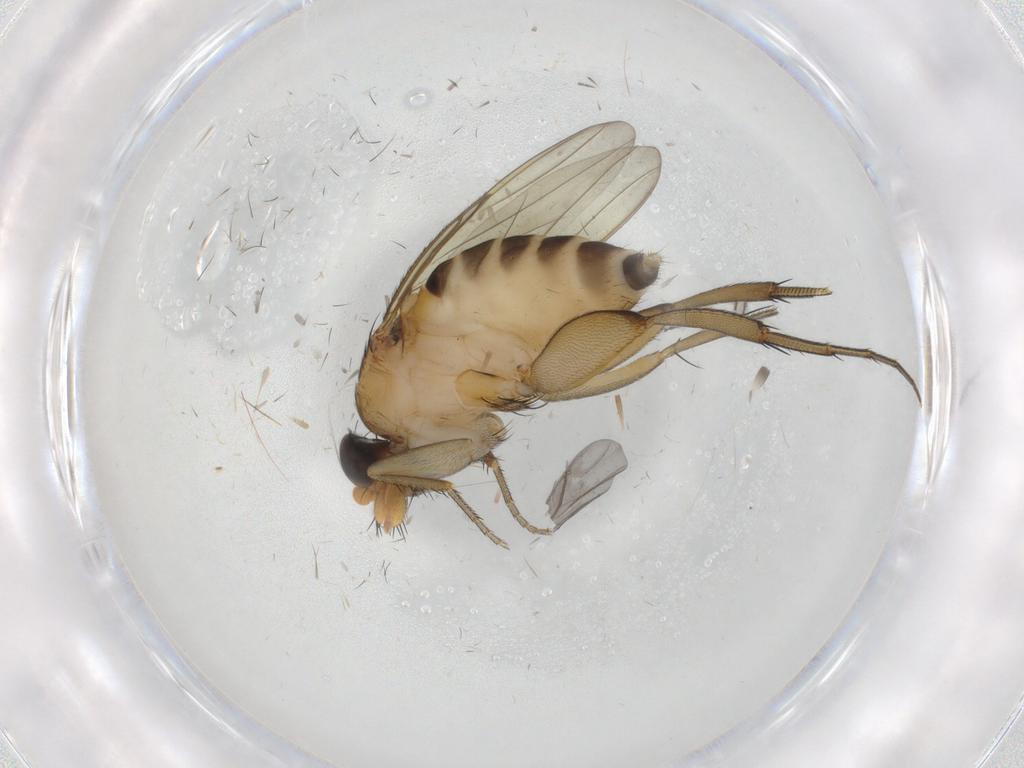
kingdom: Animalia
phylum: Arthropoda
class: Insecta
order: Diptera
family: Phoridae
